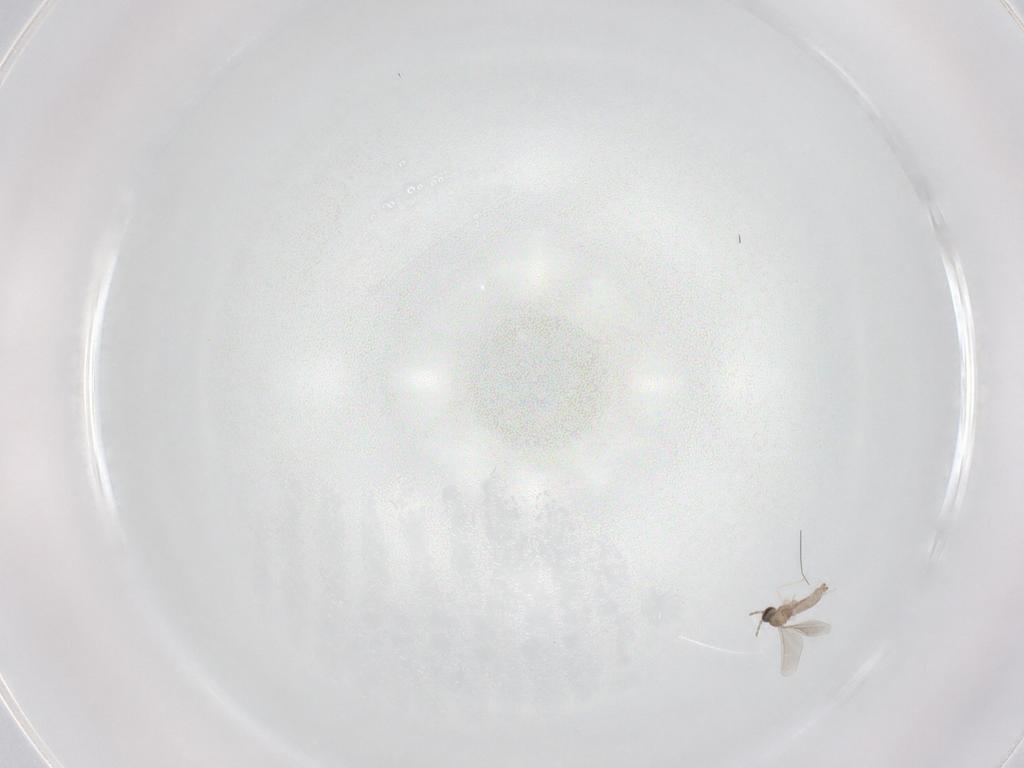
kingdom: Animalia
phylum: Arthropoda
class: Insecta
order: Diptera
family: Cecidomyiidae
